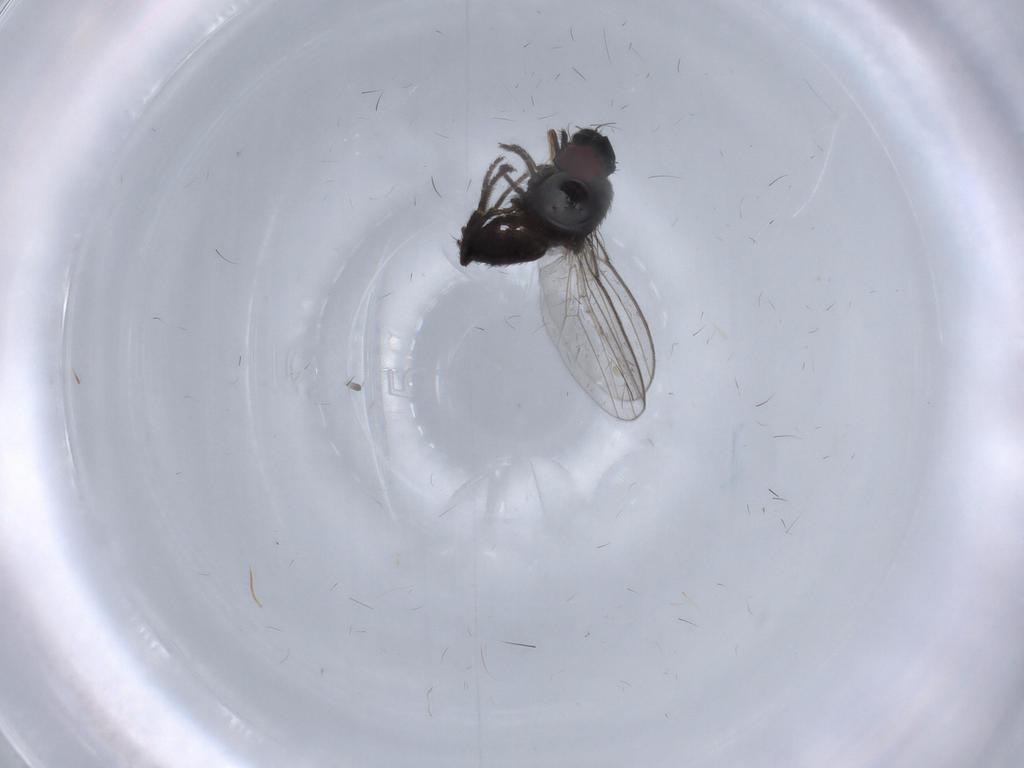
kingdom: Animalia
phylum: Arthropoda
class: Insecta
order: Diptera
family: Milichiidae
